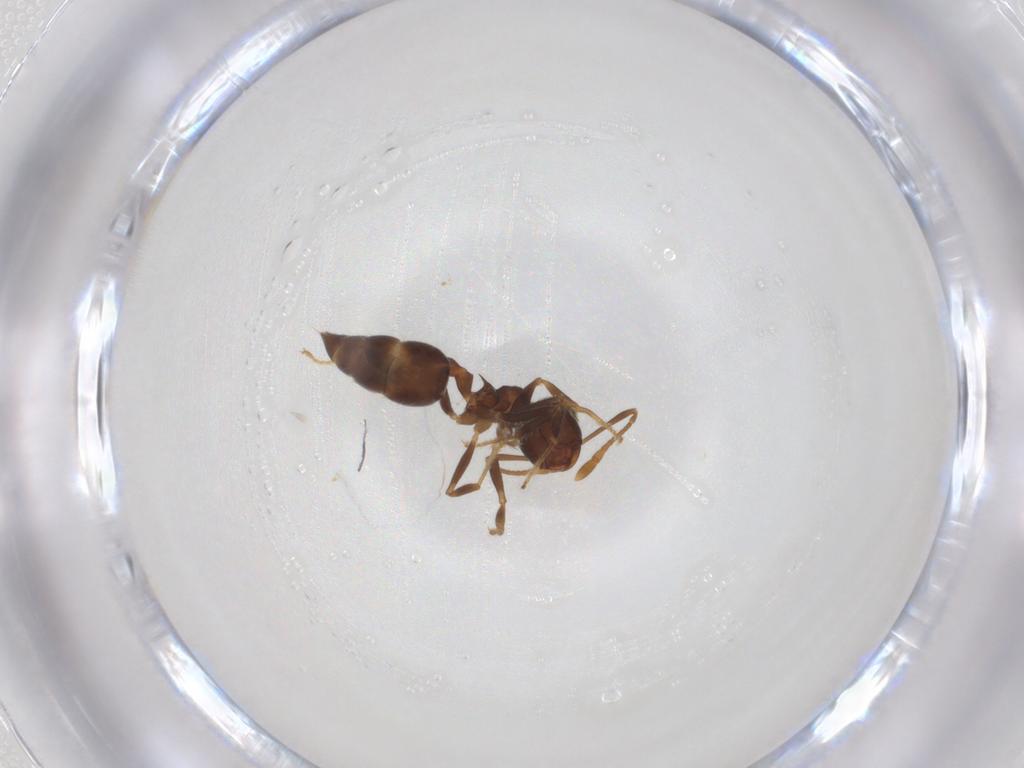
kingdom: Animalia
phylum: Arthropoda
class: Insecta
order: Hymenoptera
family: Formicidae
